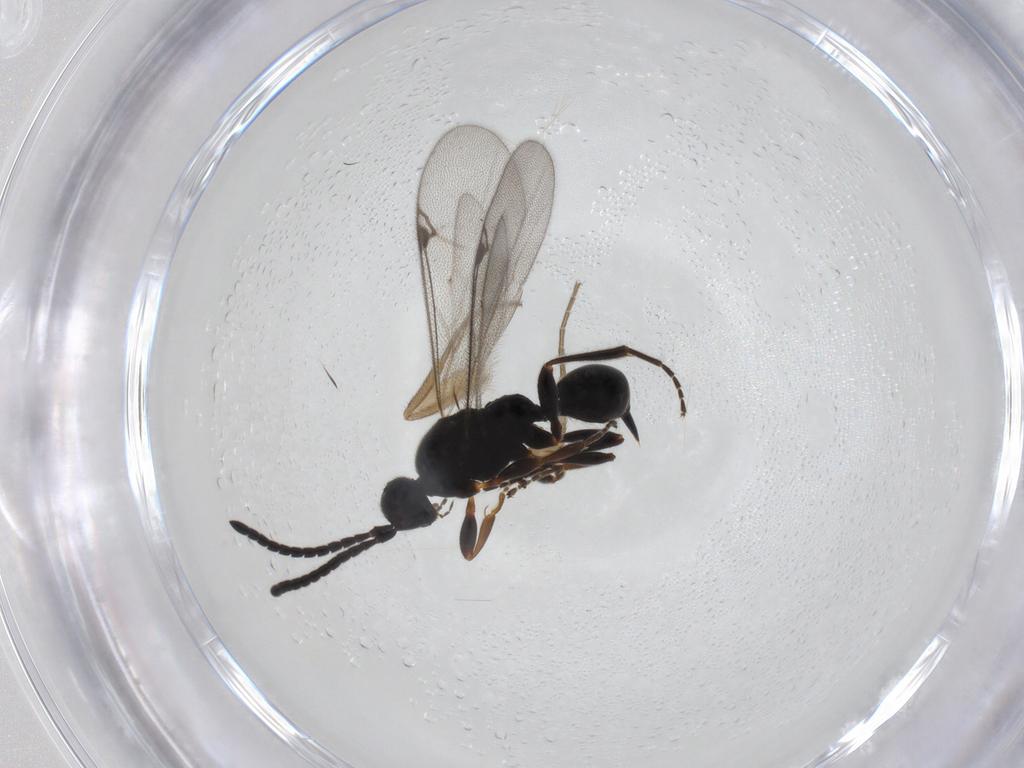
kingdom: Animalia
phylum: Arthropoda
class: Insecta
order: Hymenoptera
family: Proctotrupidae
